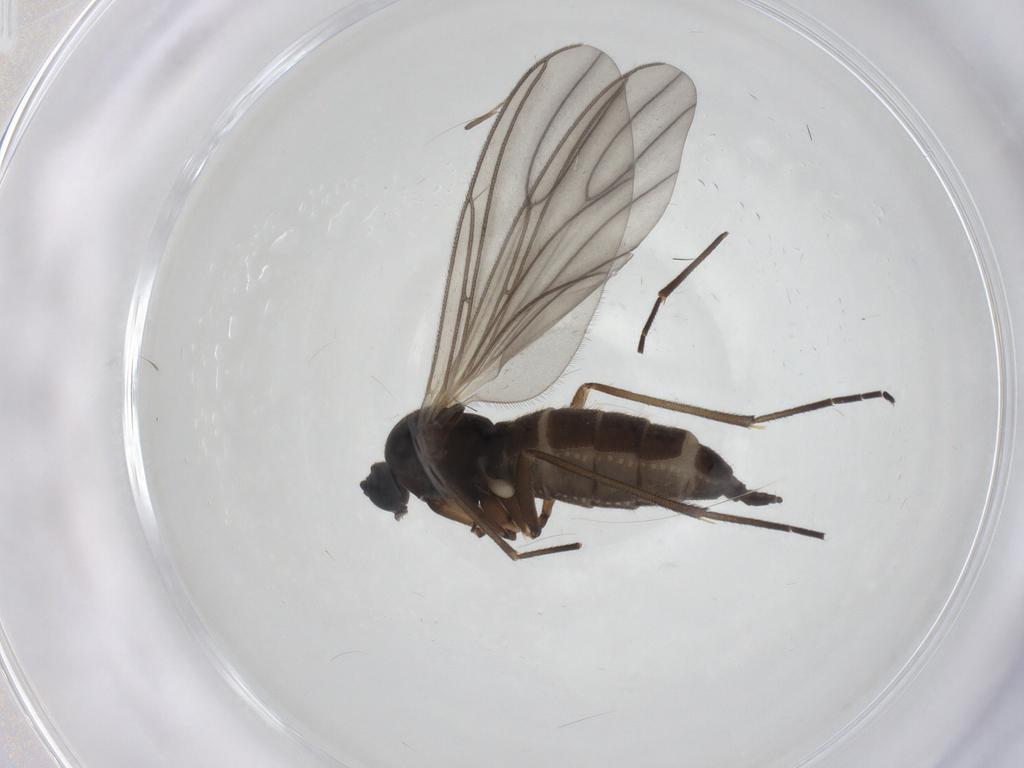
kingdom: Animalia
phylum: Arthropoda
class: Insecta
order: Diptera
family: Sciaridae
